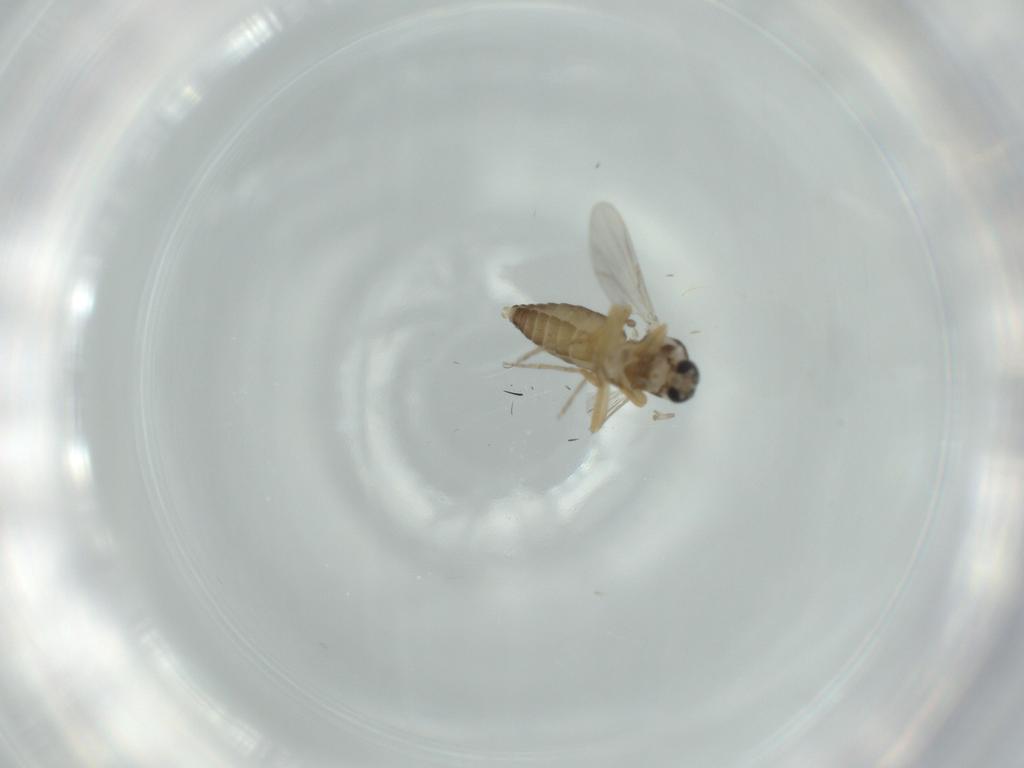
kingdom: Animalia
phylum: Arthropoda
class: Insecta
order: Diptera
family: Ceratopogonidae
